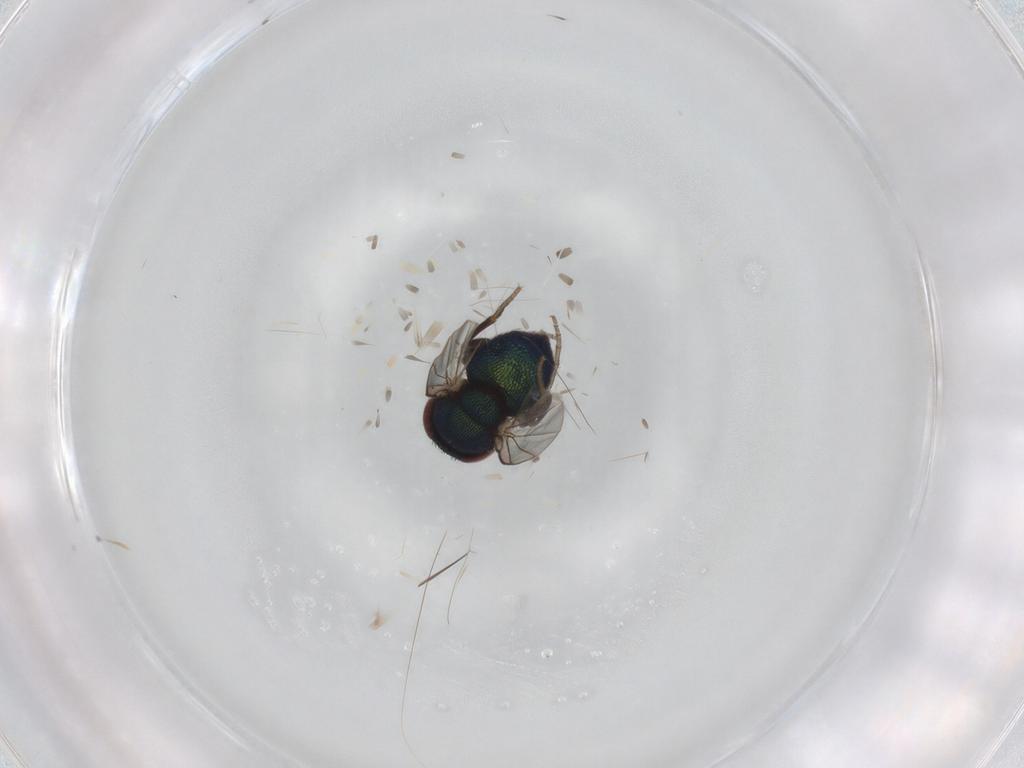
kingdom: Animalia
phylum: Arthropoda
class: Insecta
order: Diptera
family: Cryptochetidae
